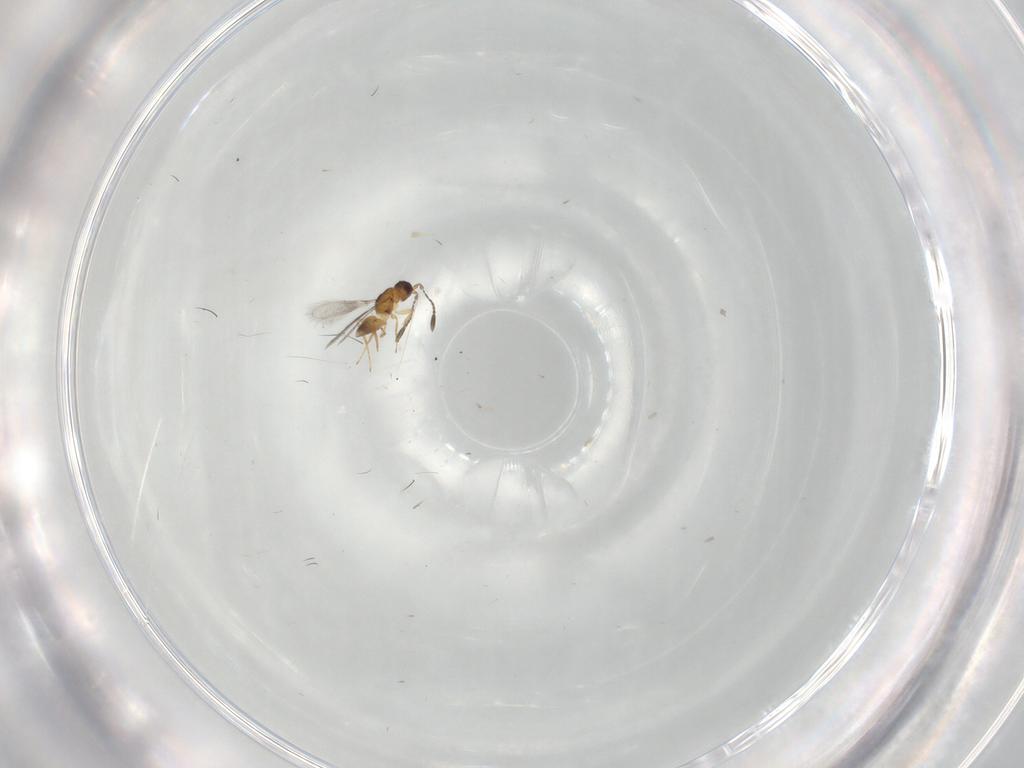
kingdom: Animalia
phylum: Arthropoda
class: Insecta
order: Hymenoptera
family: Mymaridae
